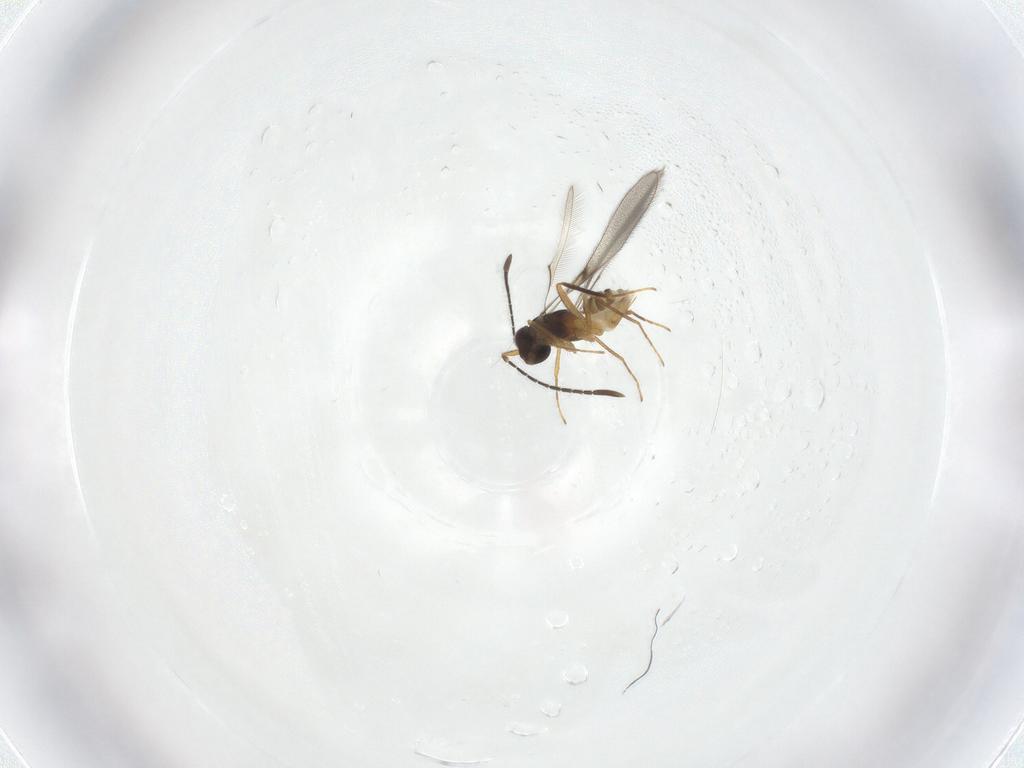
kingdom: Animalia
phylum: Arthropoda
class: Insecta
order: Hymenoptera
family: Mymaridae
